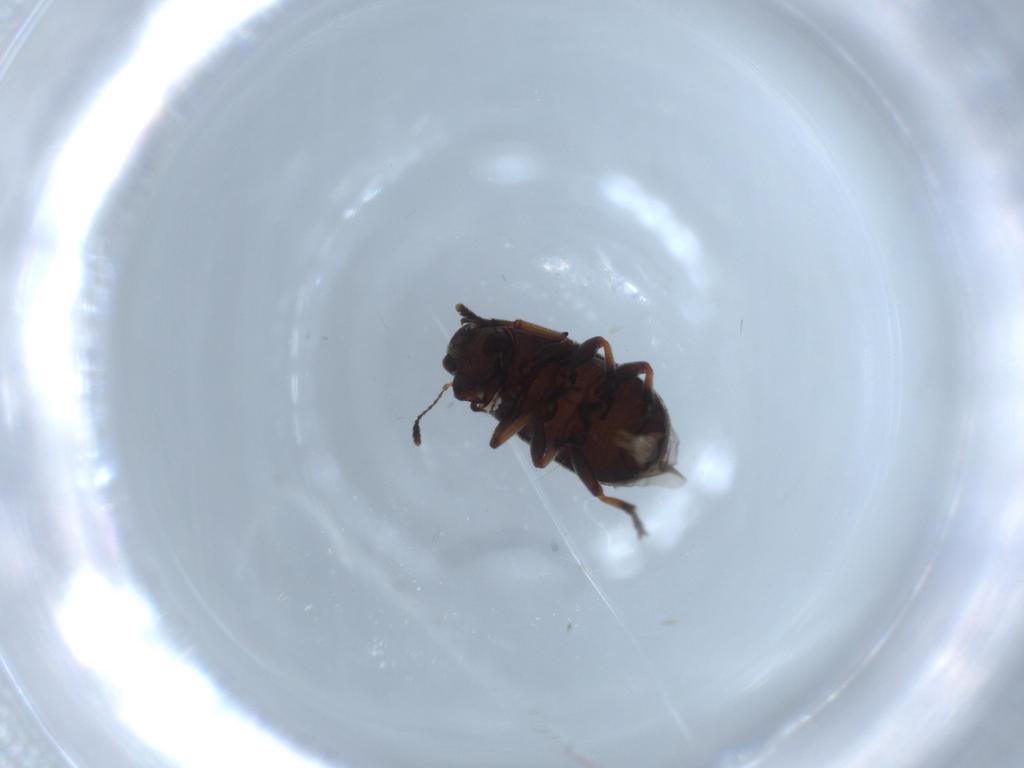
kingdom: Animalia
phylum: Arthropoda
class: Insecta
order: Coleoptera
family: Anthribidae
